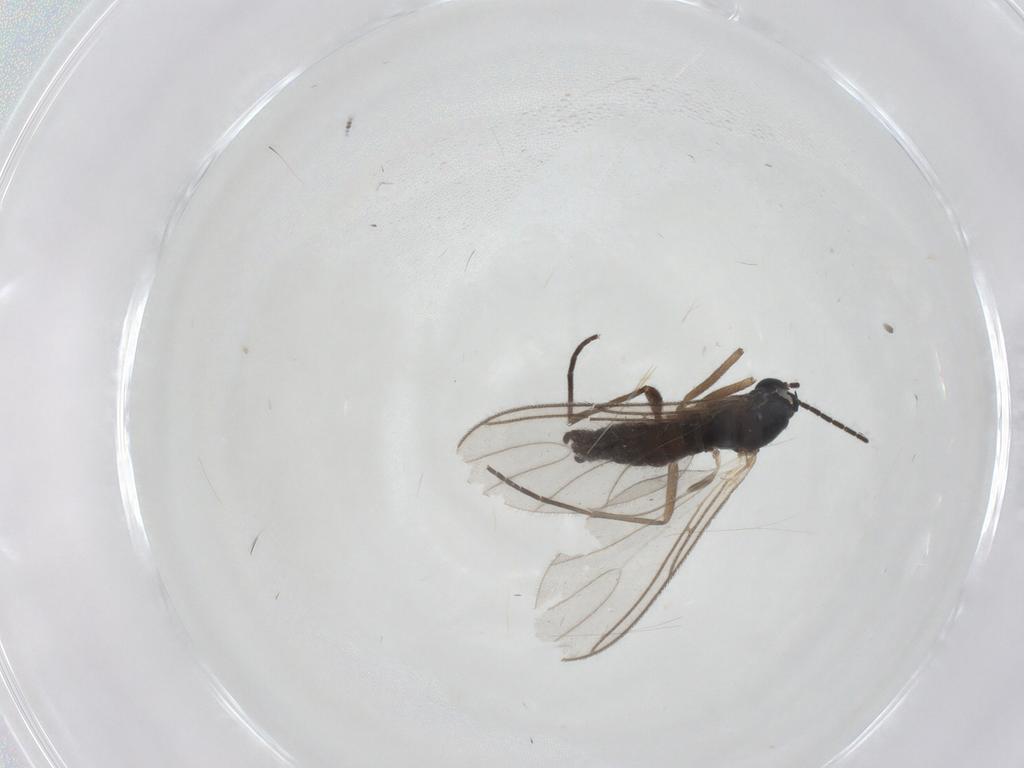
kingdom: Animalia
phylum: Arthropoda
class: Insecta
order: Diptera
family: Sciaridae
